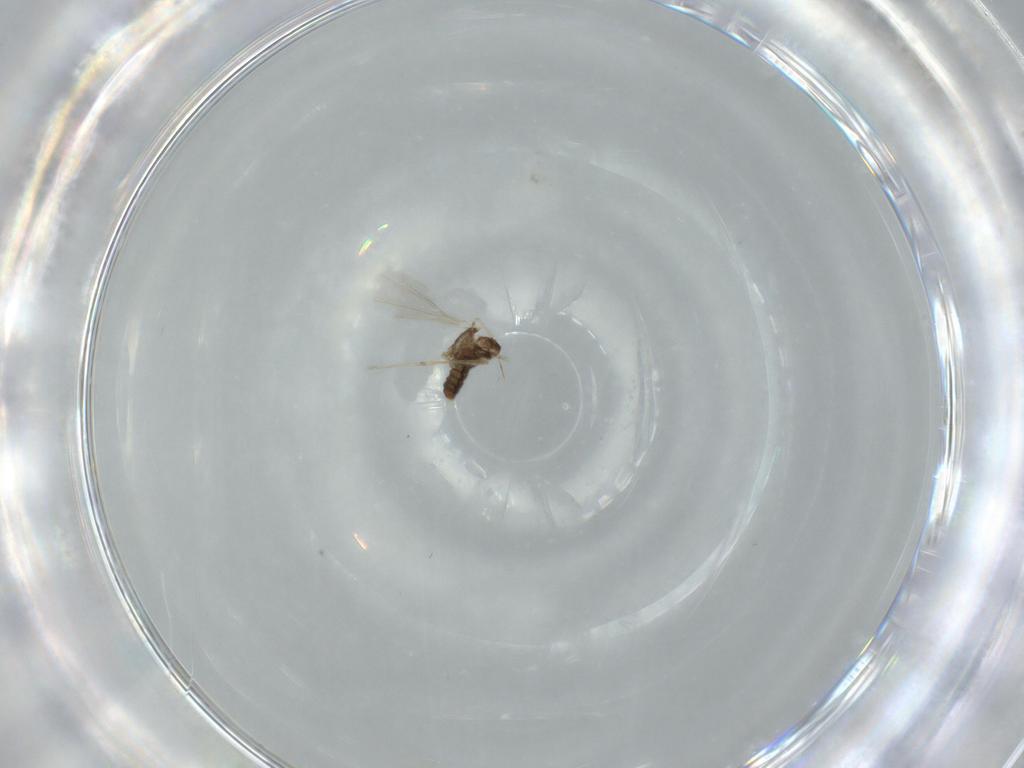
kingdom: Animalia
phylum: Arthropoda
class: Insecta
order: Diptera
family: Cecidomyiidae
